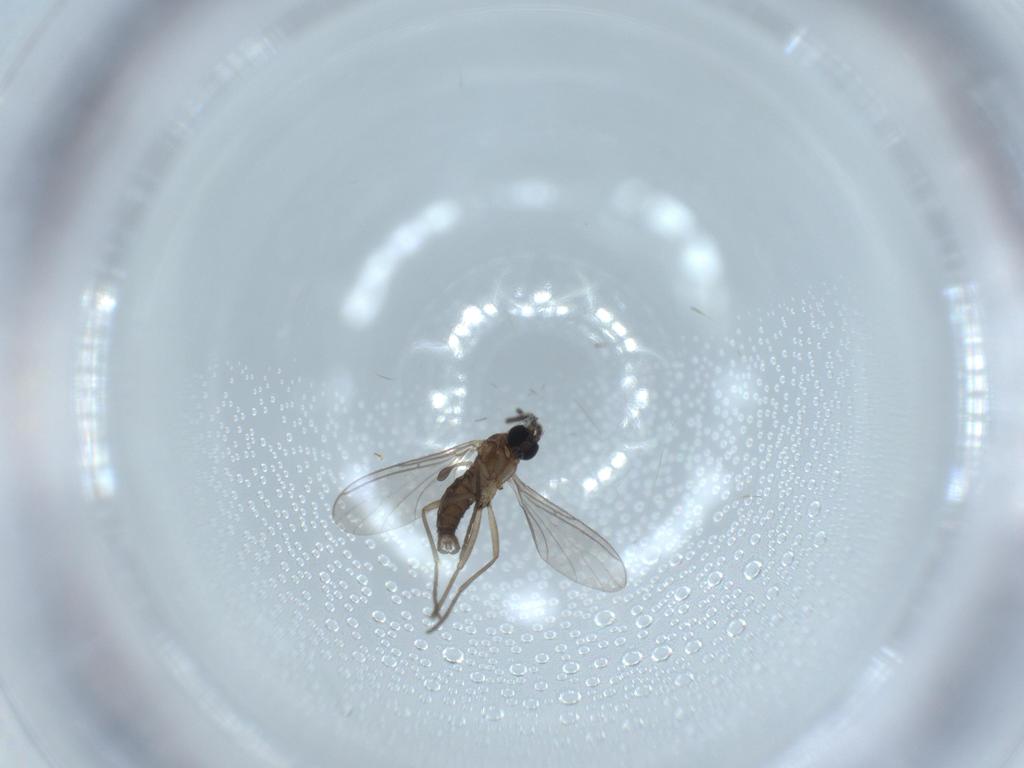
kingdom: Animalia
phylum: Arthropoda
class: Insecta
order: Diptera
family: Sciaridae
